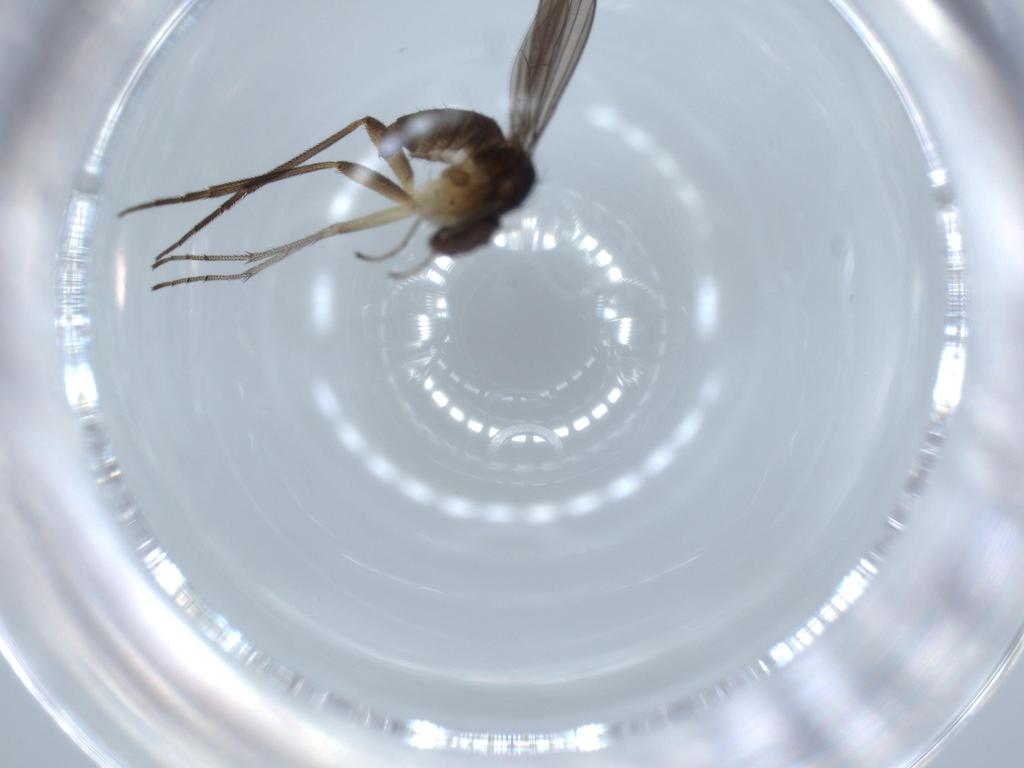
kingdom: Animalia
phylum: Arthropoda
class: Insecta
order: Diptera
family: Dolichopodidae
